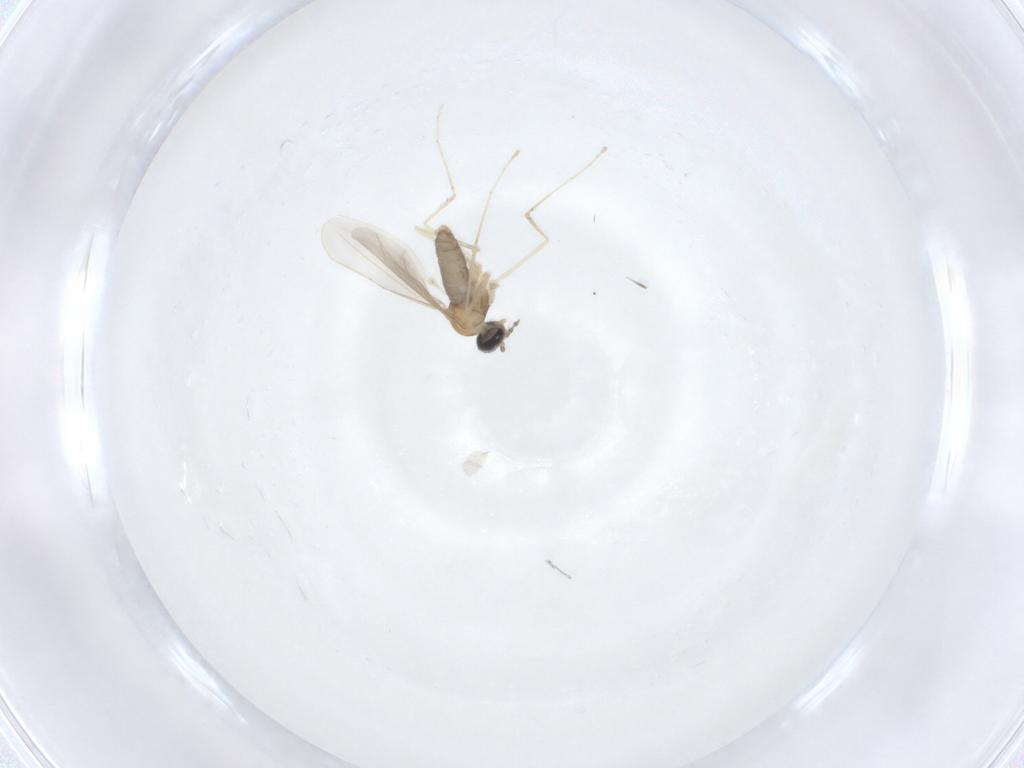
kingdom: Animalia
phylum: Arthropoda
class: Insecta
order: Diptera
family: Cecidomyiidae
